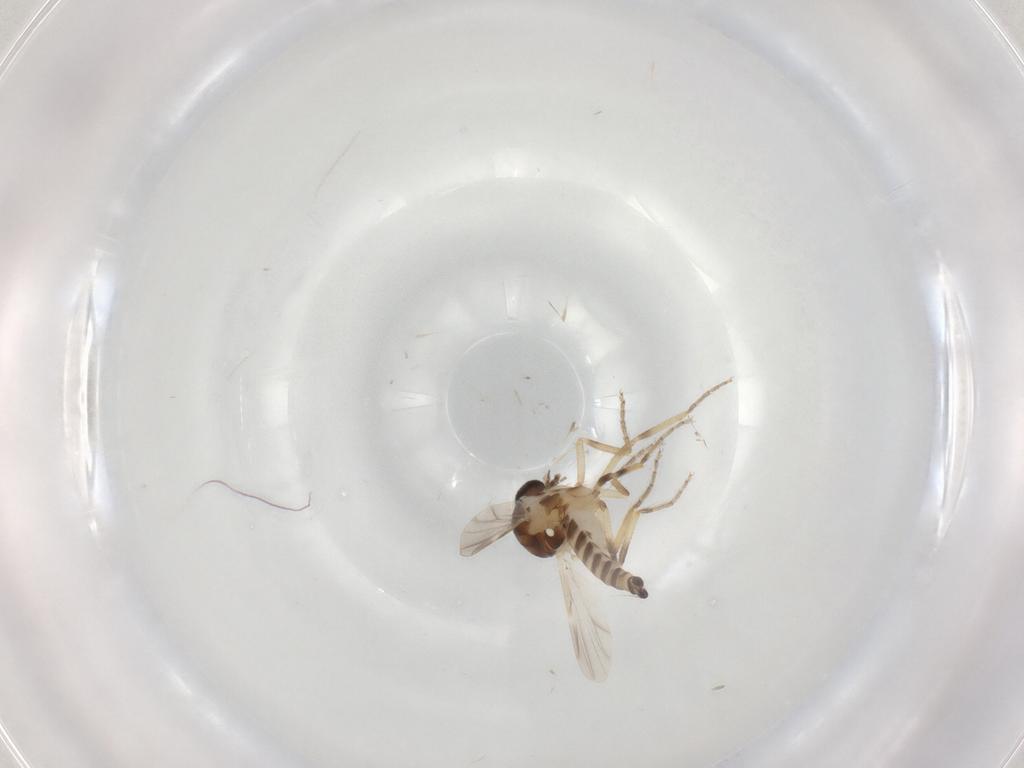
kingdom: Animalia
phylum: Arthropoda
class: Insecta
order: Diptera
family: Ceratopogonidae
